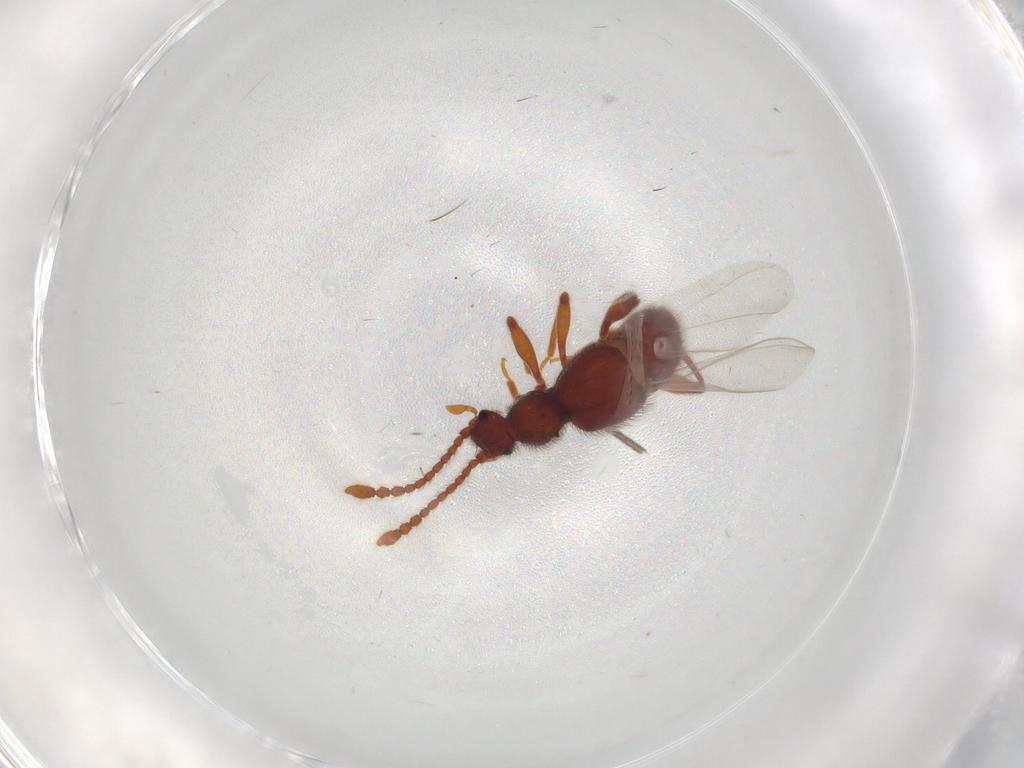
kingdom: Animalia
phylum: Arthropoda
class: Insecta
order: Coleoptera
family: Staphylinidae
